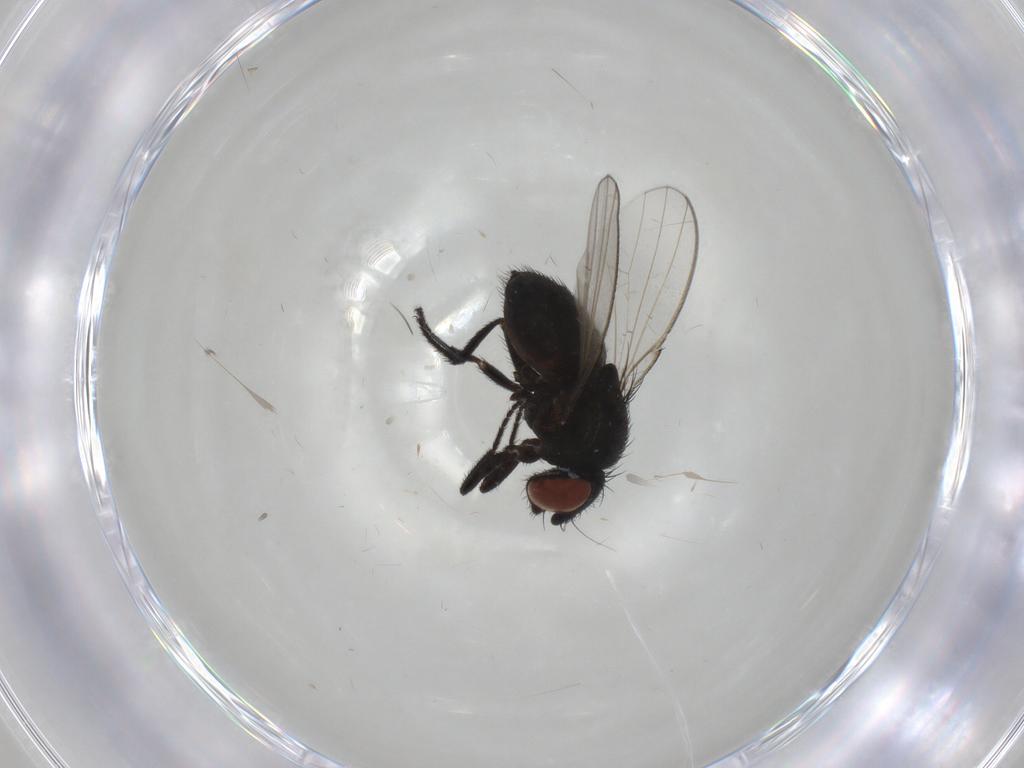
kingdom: Animalia
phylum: Arthropoda
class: Insecta
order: Diptera
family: Milichiidae
